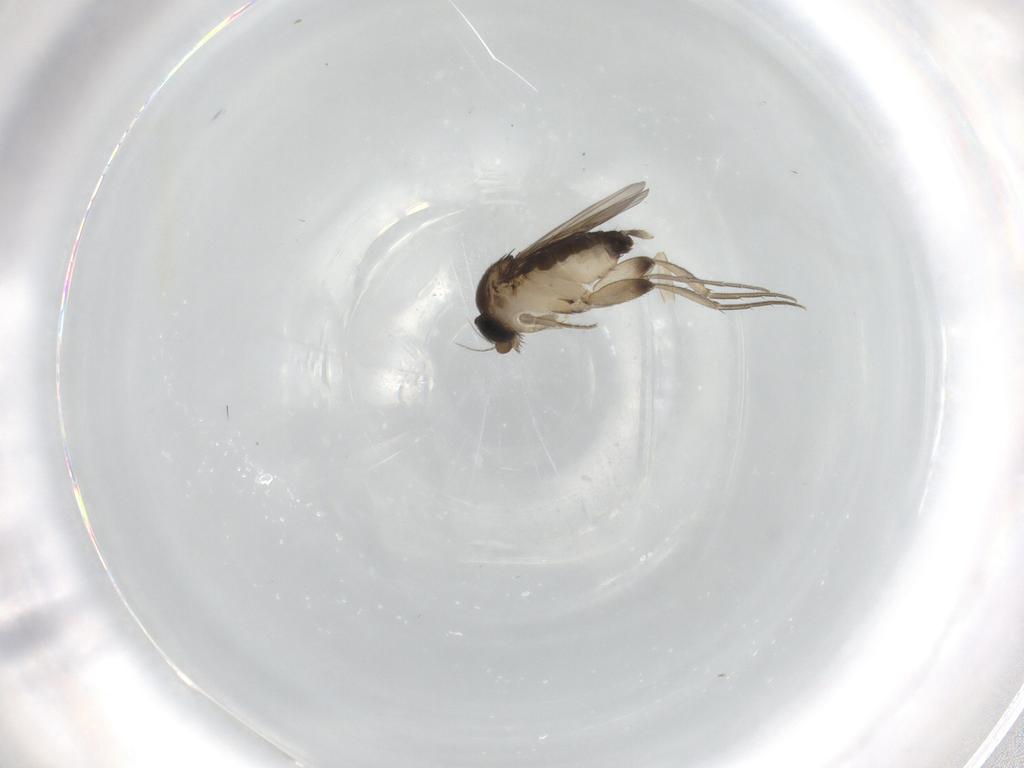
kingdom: Animalia
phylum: Arthropoda
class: Insecta
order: Diptera
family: Phoridae
